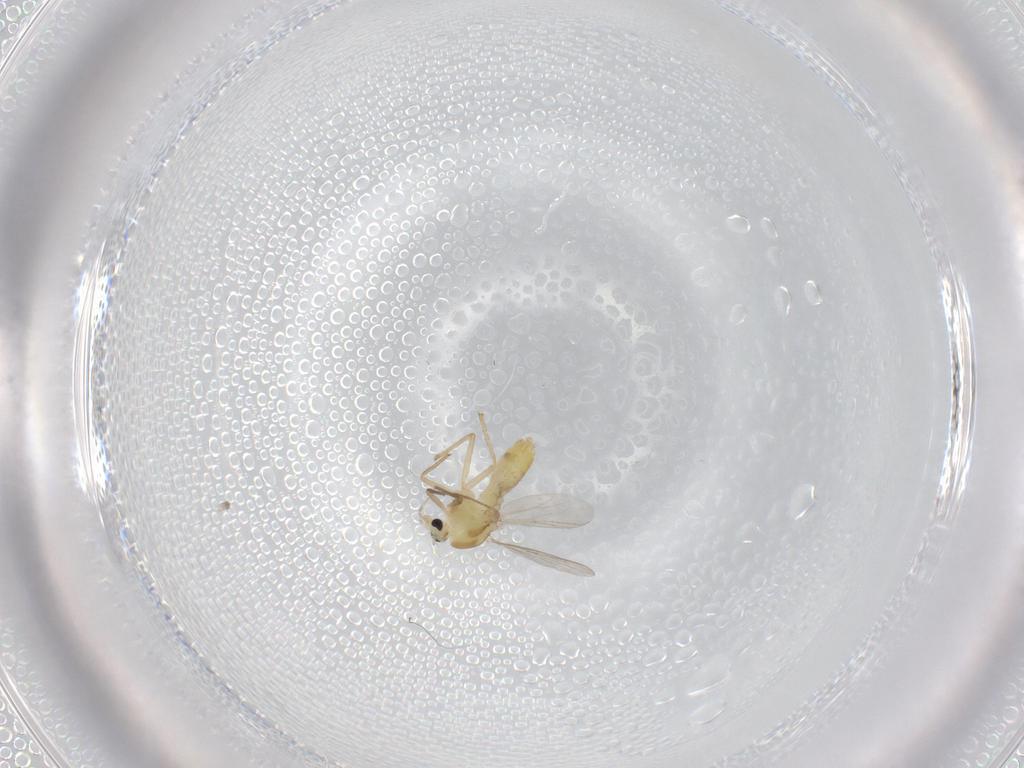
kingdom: Animalia
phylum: Arthropoda
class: Insecta
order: Diptera
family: Chironomidae
